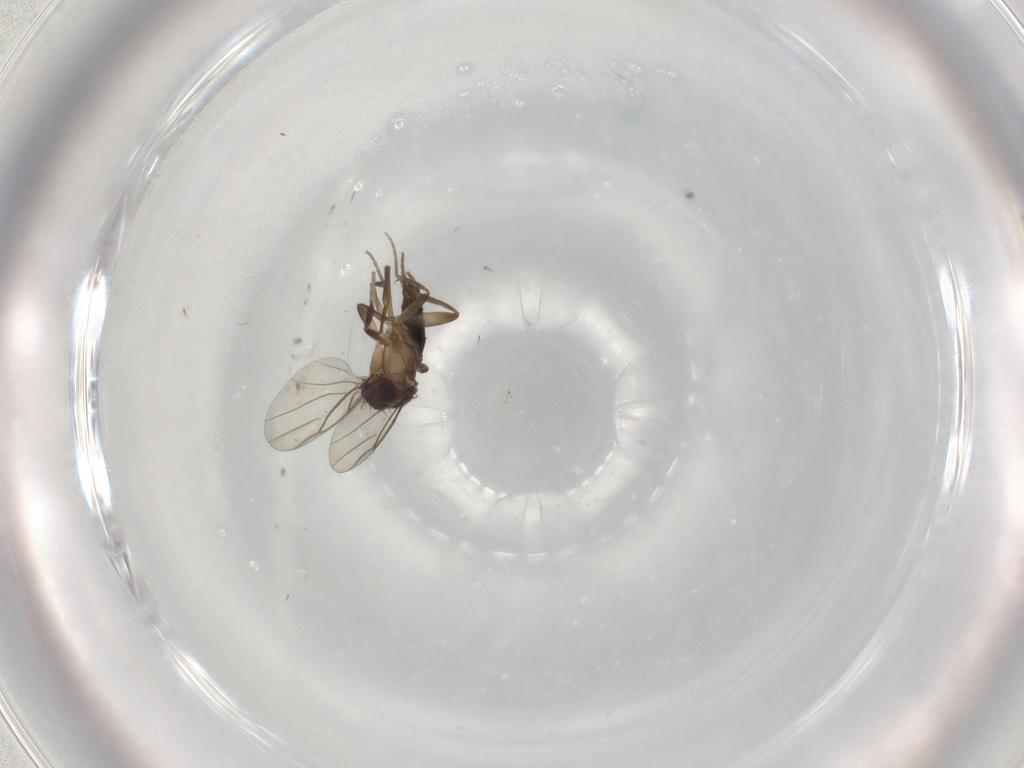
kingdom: Animalia
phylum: Arthropoda
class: Insecta
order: Diptera
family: Phoridae
